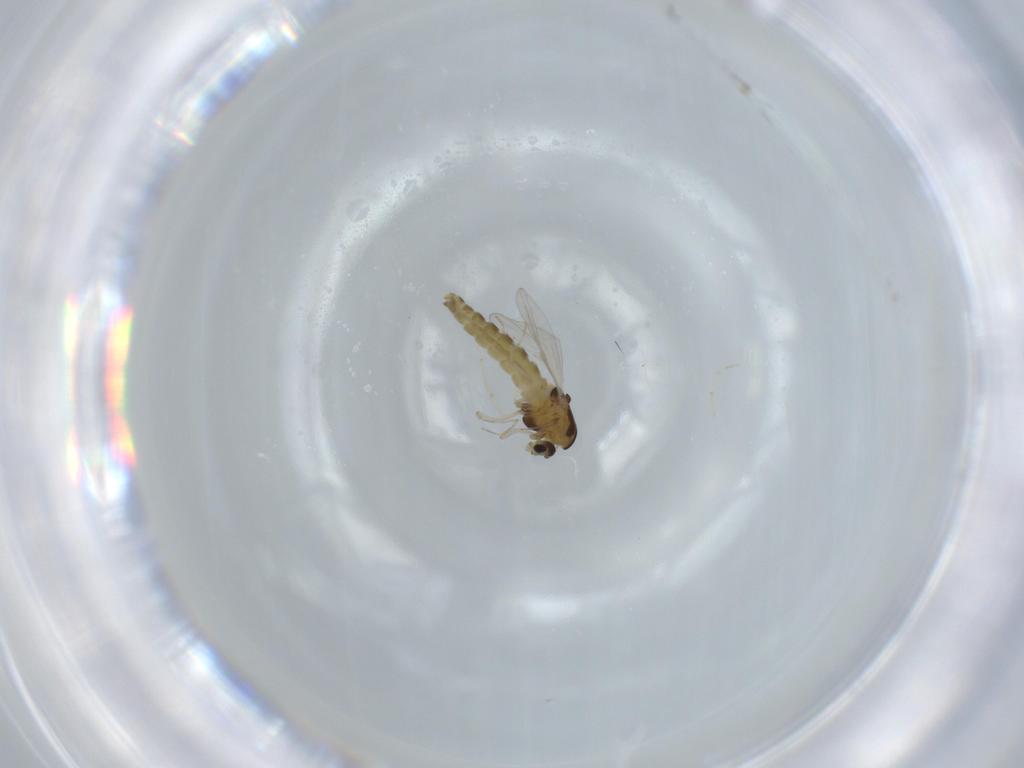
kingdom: Animalia
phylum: Arthropoda
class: Insecta
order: Diptera
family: Chironomidae
